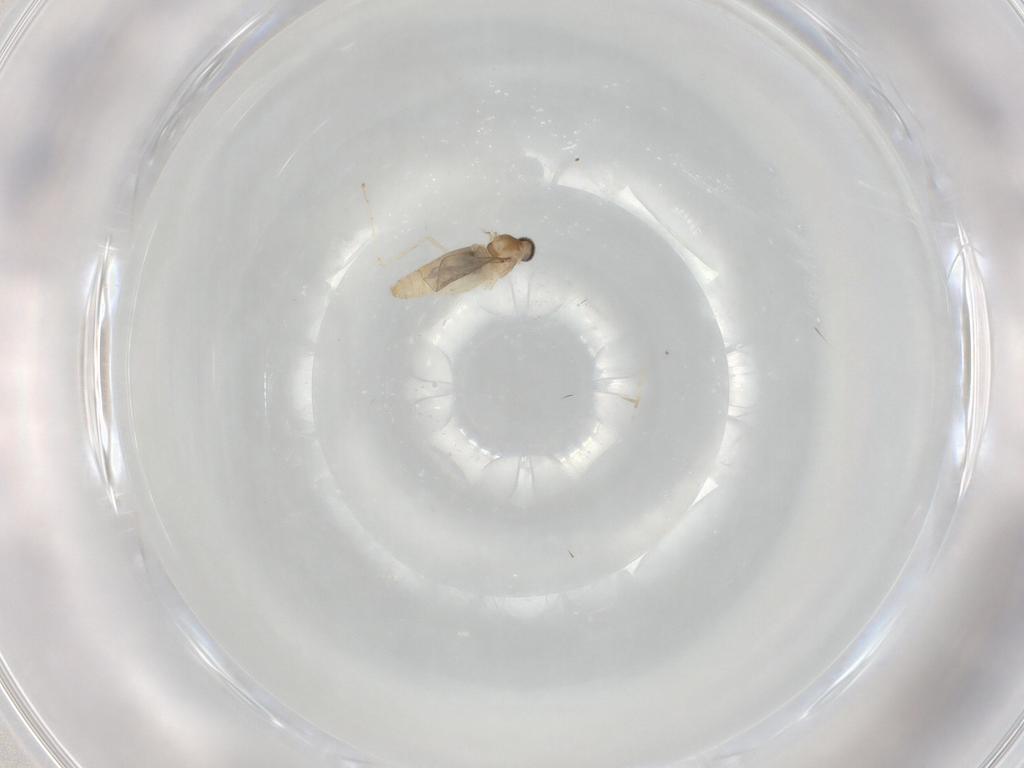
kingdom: Animalia
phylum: Arthropoda
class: Insecta
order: Diptera
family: Cecidomyiidae
